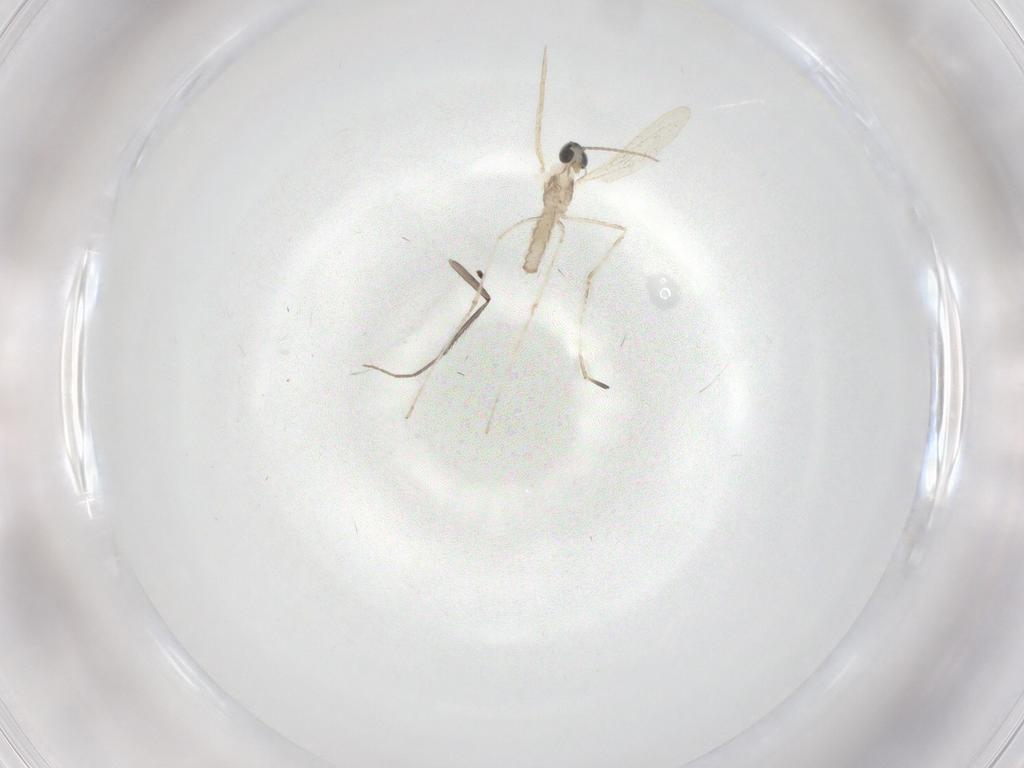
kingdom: Animalia
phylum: Arthropoda
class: Insecta
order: Diptera
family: Cecidomyiidae
